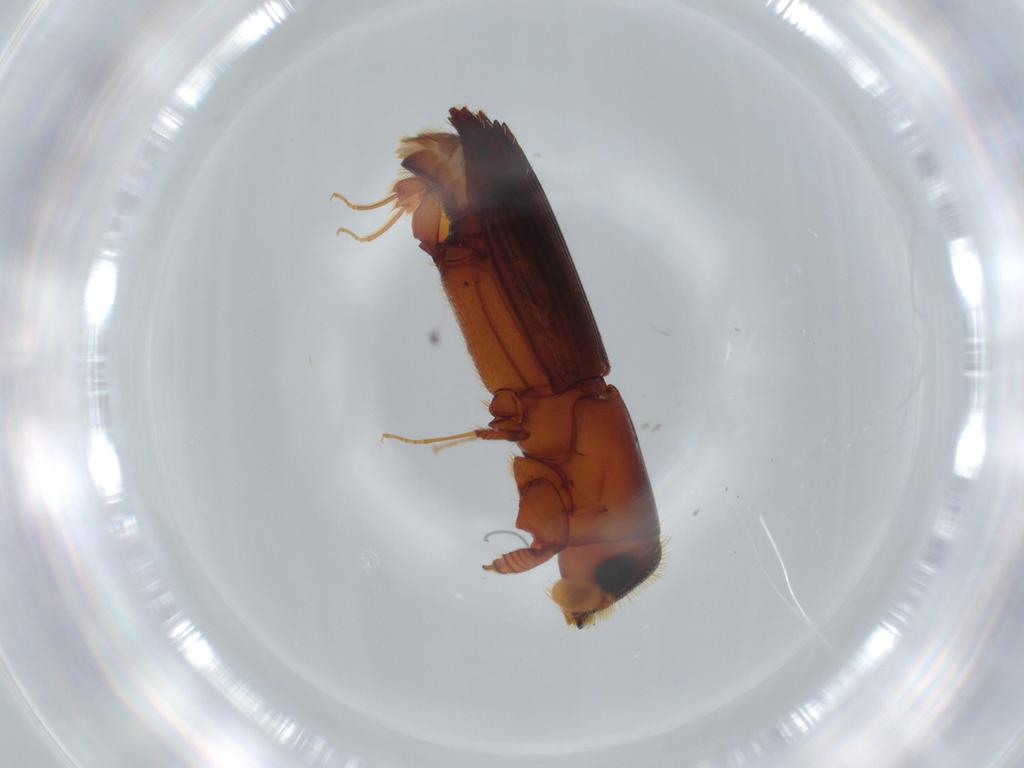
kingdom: Animalia
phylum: Arthropoda
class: Insecta
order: Coleoptera
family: Curculionidae
